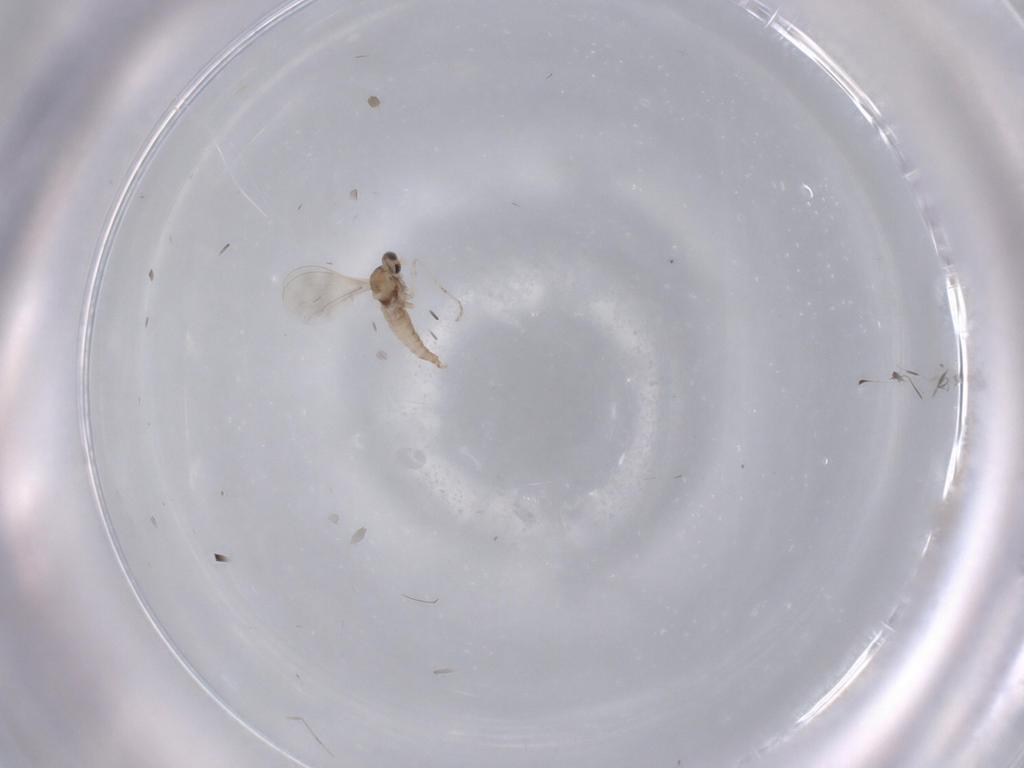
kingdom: Animalia
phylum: Arthropoda
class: Insecta
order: Diptera
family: Cecidomyiidae
